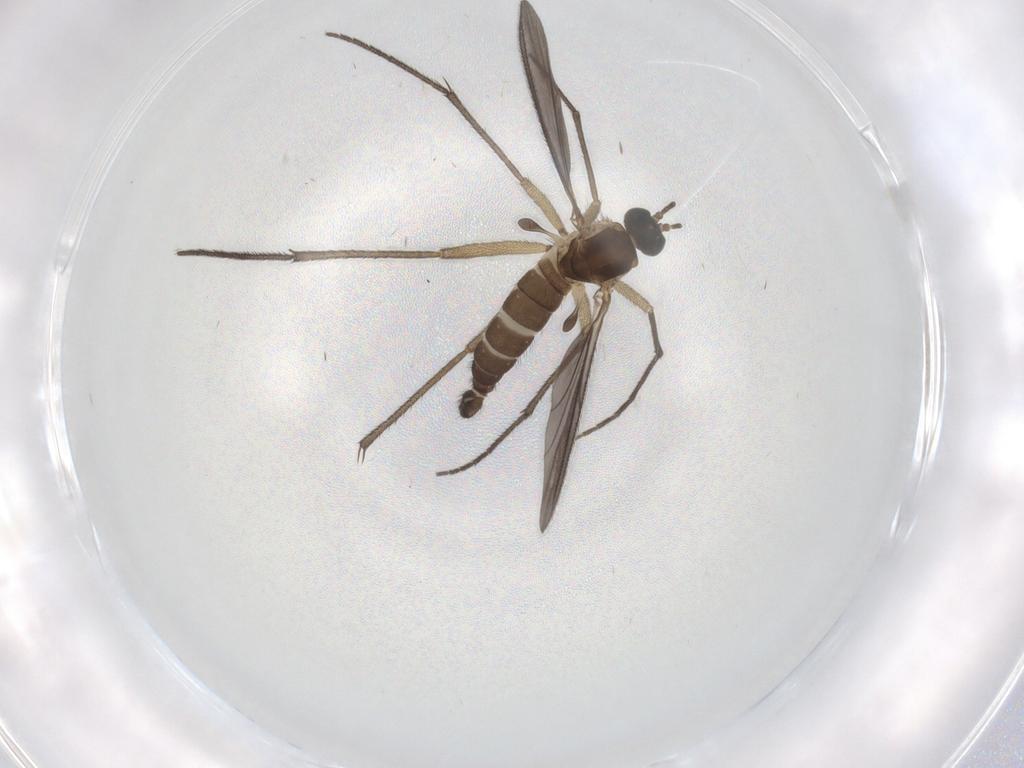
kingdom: Animalia
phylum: Arthropoda
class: Insecta
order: Diptera
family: Sciaridae
